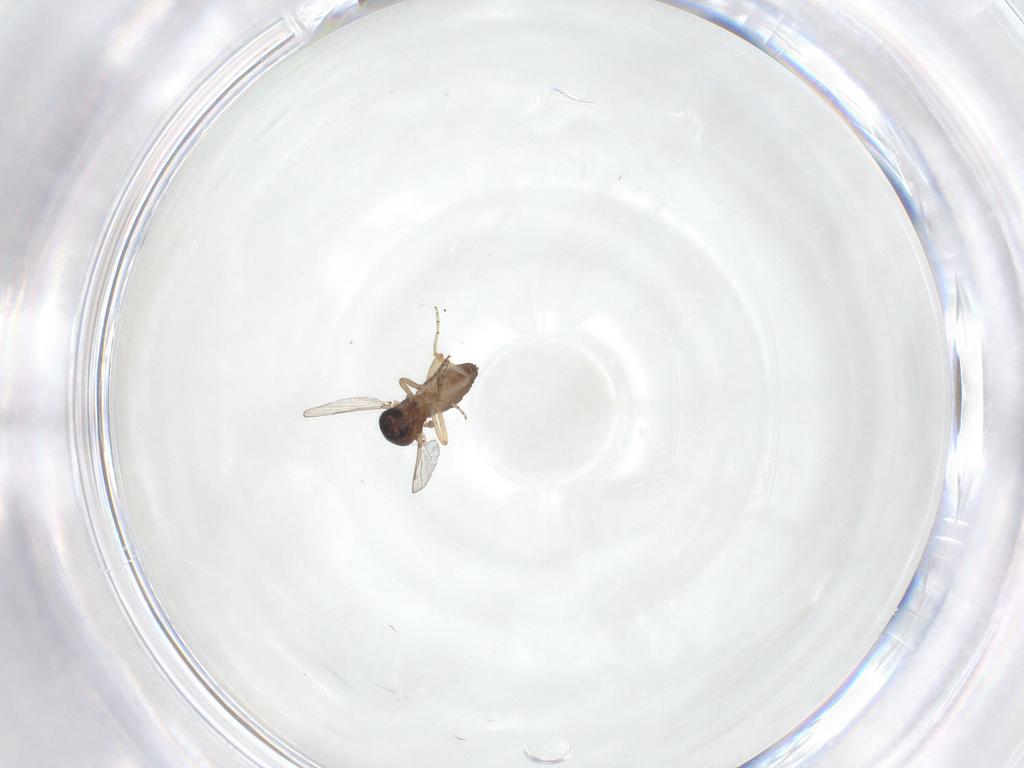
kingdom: Animalia
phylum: Arthropoda
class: Insecta
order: Diptera
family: Ceratopogonidae
